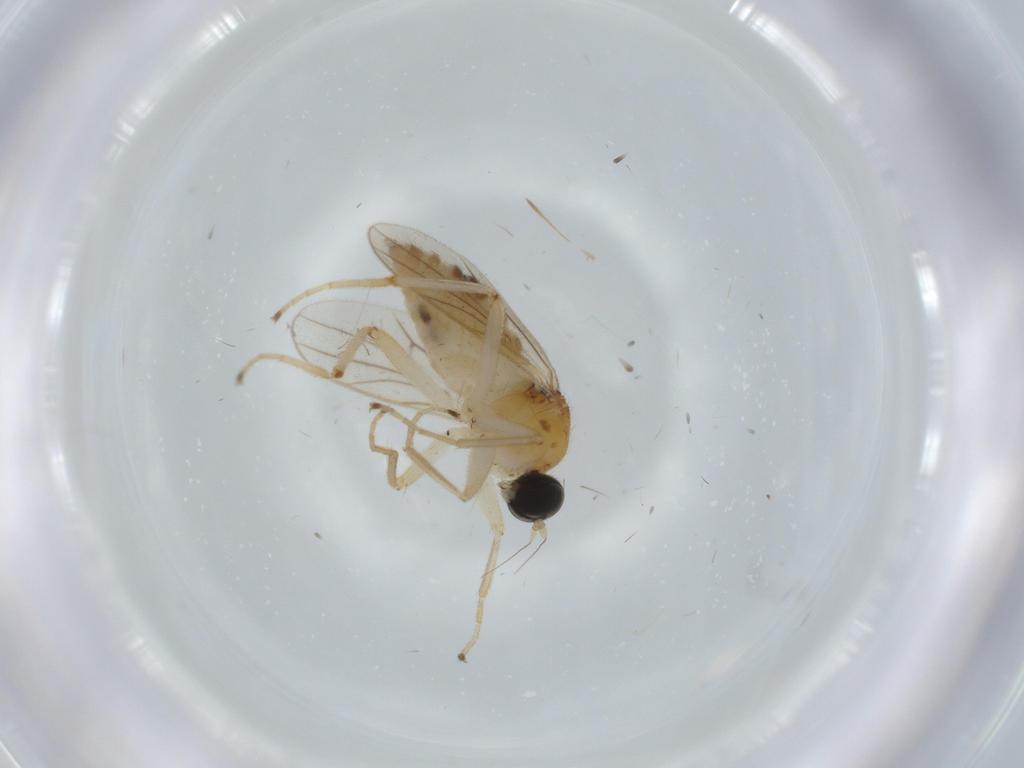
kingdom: Animalia
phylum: Arthropoda
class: Insecta
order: Diptera
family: Hybotidae
